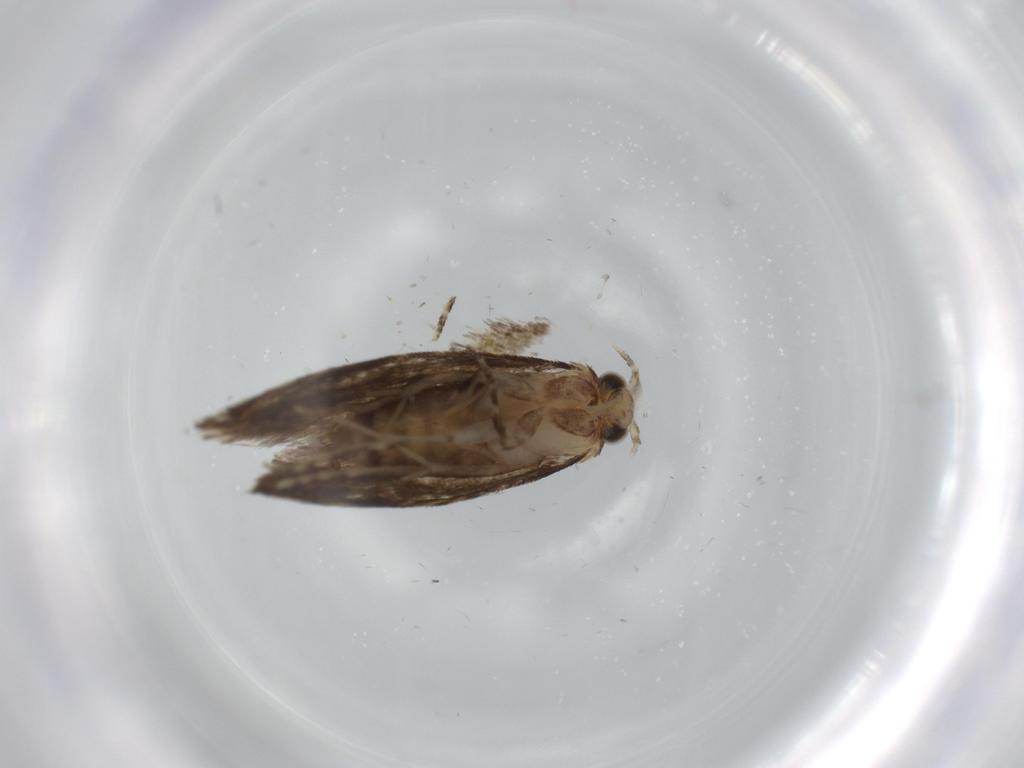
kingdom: Animalia
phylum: Arthropoda
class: Insecta
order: Lepidoptera
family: Tineidae
